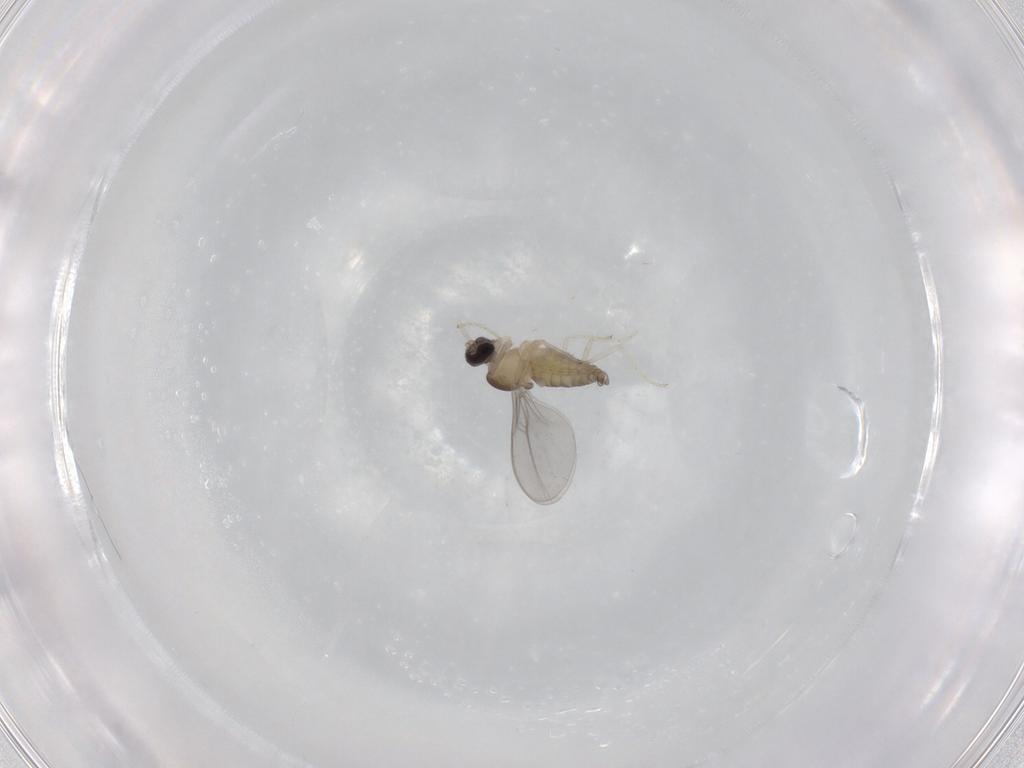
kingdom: Animalia
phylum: Arthropoda
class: Insecta
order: Diptera
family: Cecidomyiidae
